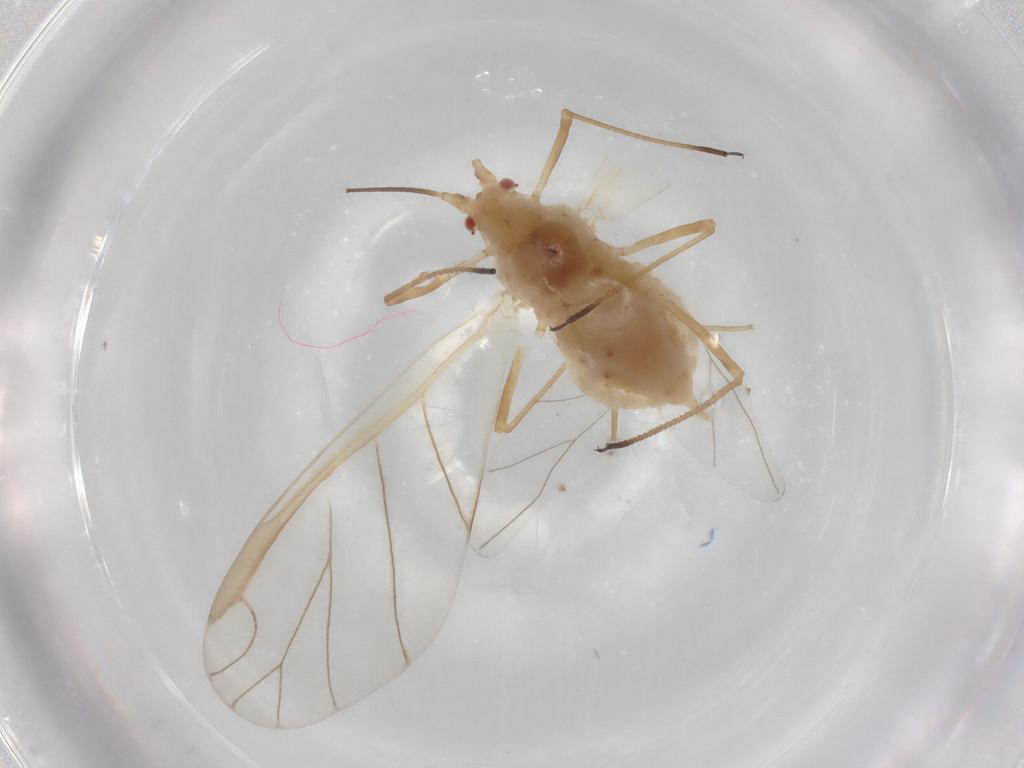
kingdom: Animalia
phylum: Arthropoda
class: Insecta
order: Hemiptera
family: Aphididae
